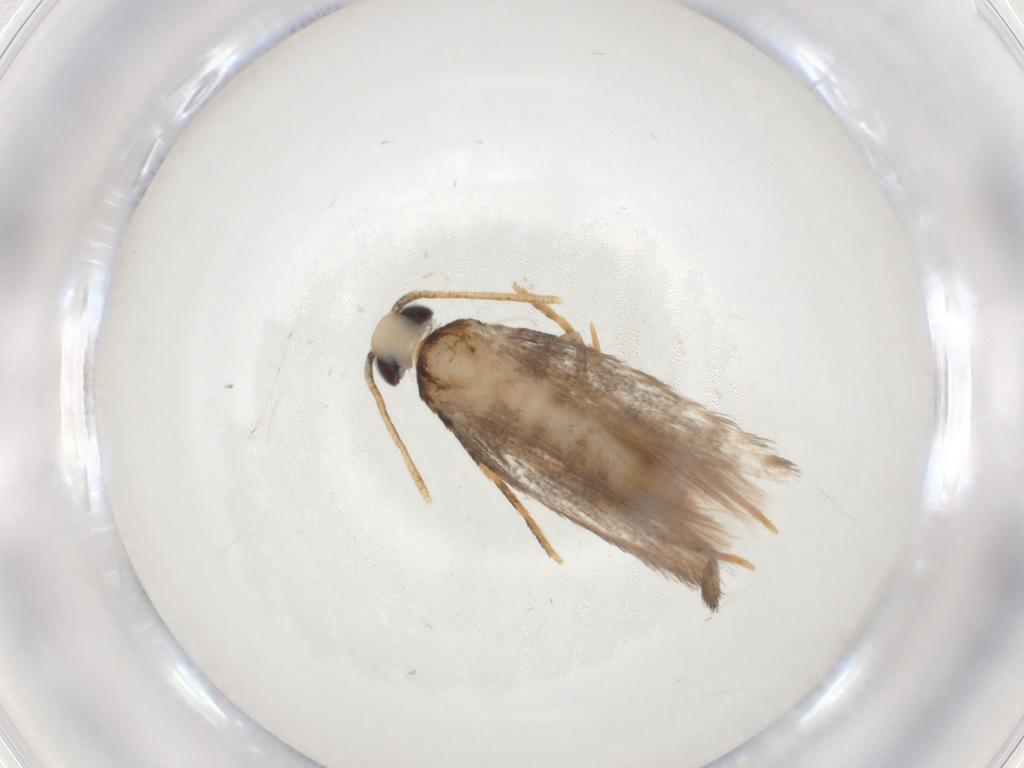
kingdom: Animalia
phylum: Arthropoda
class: Insecta
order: Lepidoptera
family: Coleophoridae
